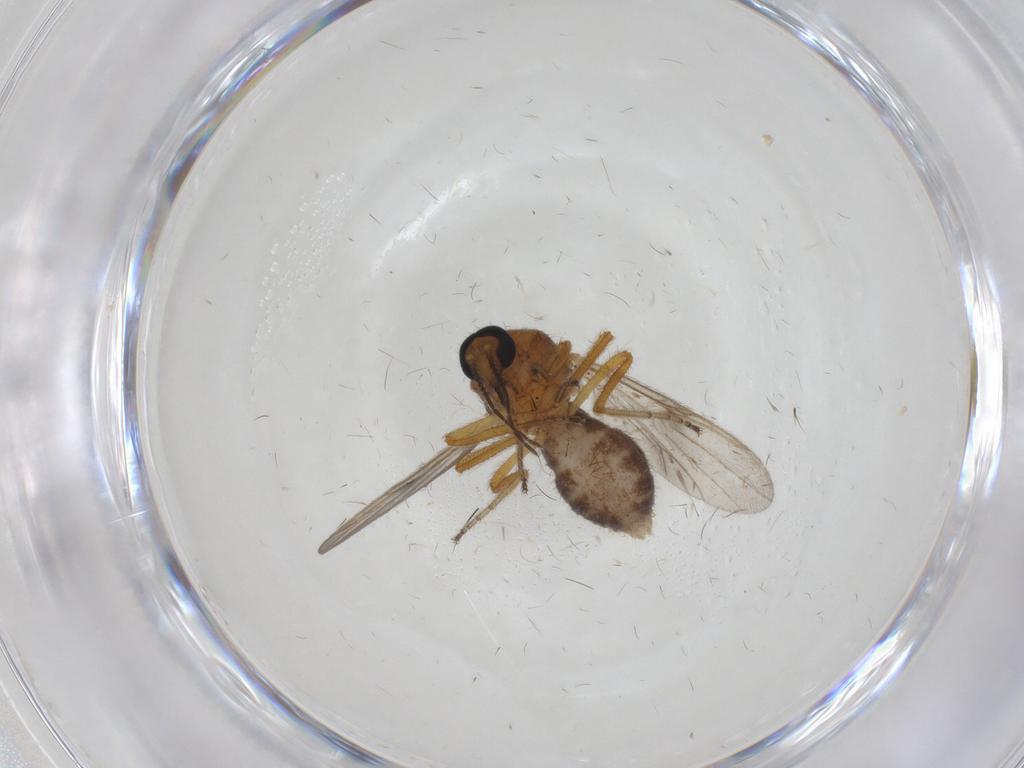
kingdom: Animalia
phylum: Arthropoda
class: Insecta
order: Diptera
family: Ceratopogonidae
